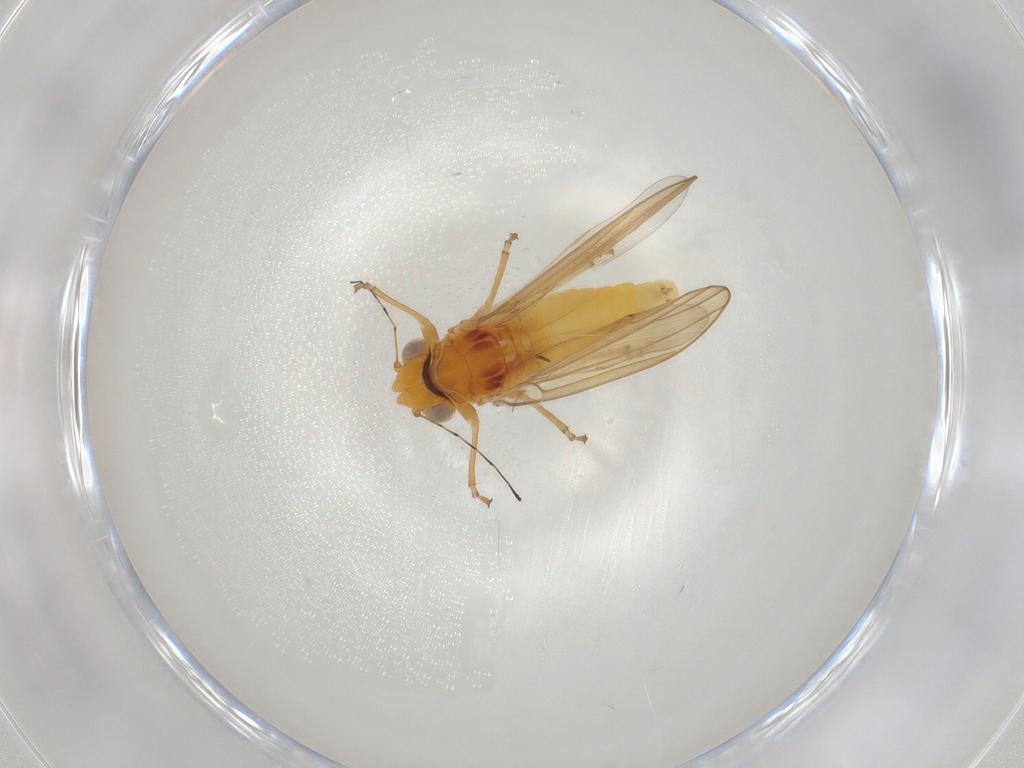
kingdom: Animalia
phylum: Arthropoda
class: Insecta
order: Hemiptera
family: Psylloidea_incertae_sedis
